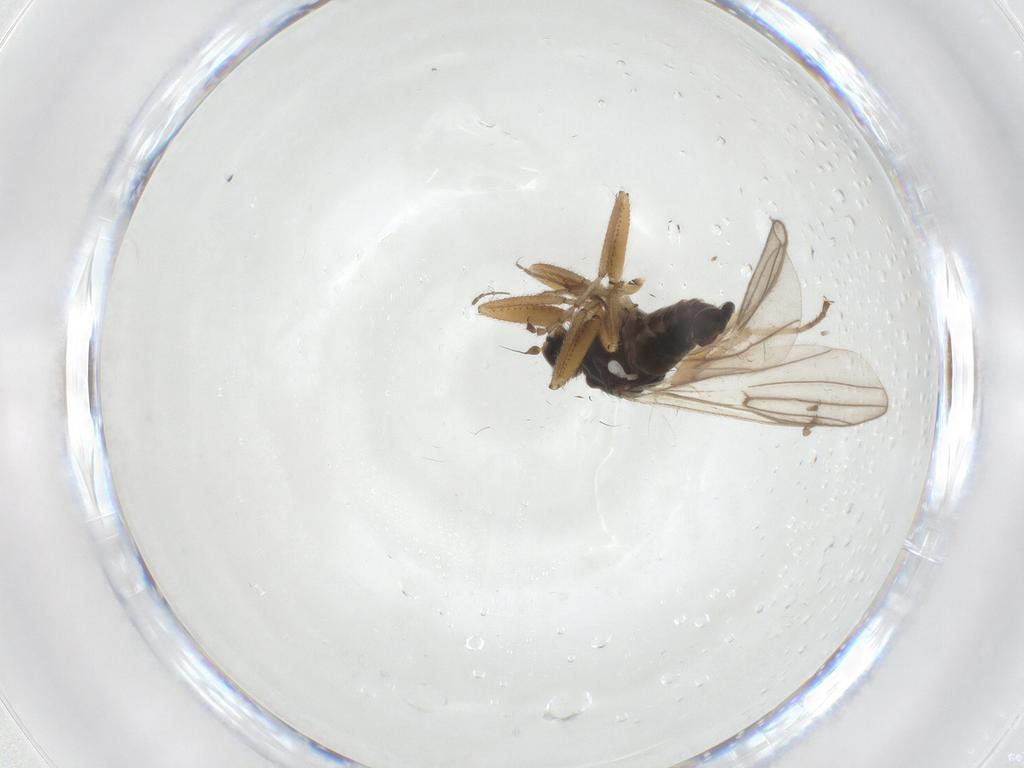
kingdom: Animalia
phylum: Arthropoda
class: Insecta
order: Diptera
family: Hybotidae
